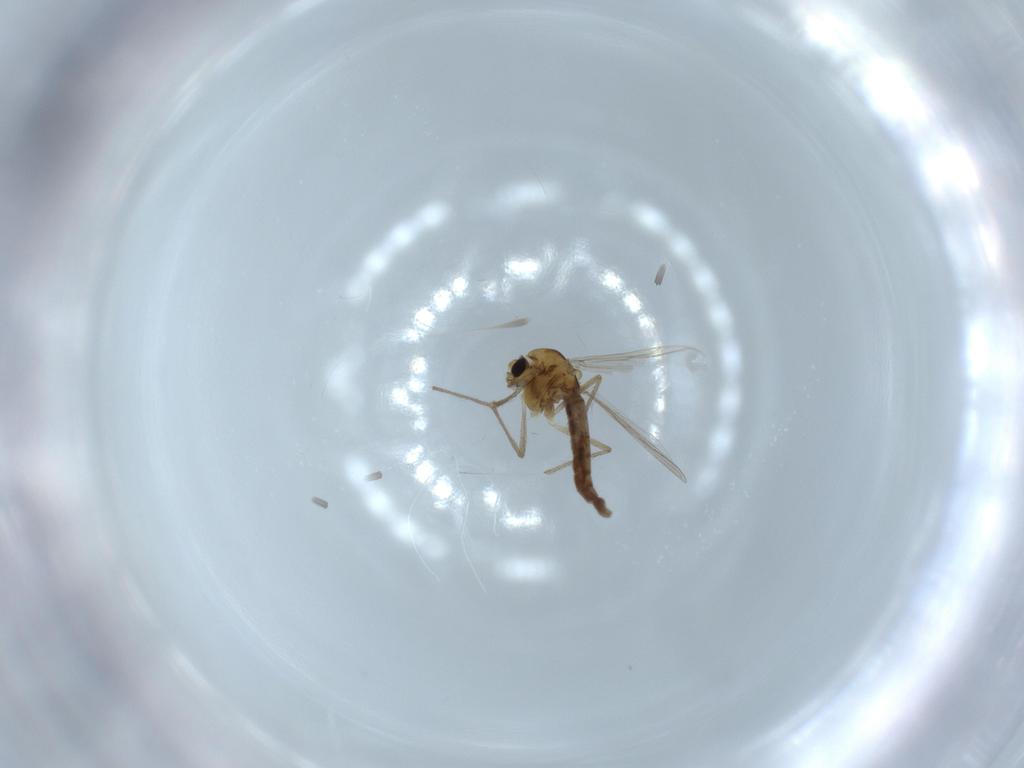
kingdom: Animalia
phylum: Arthropoda
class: Insecta
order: Diptera
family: Chironomidae
